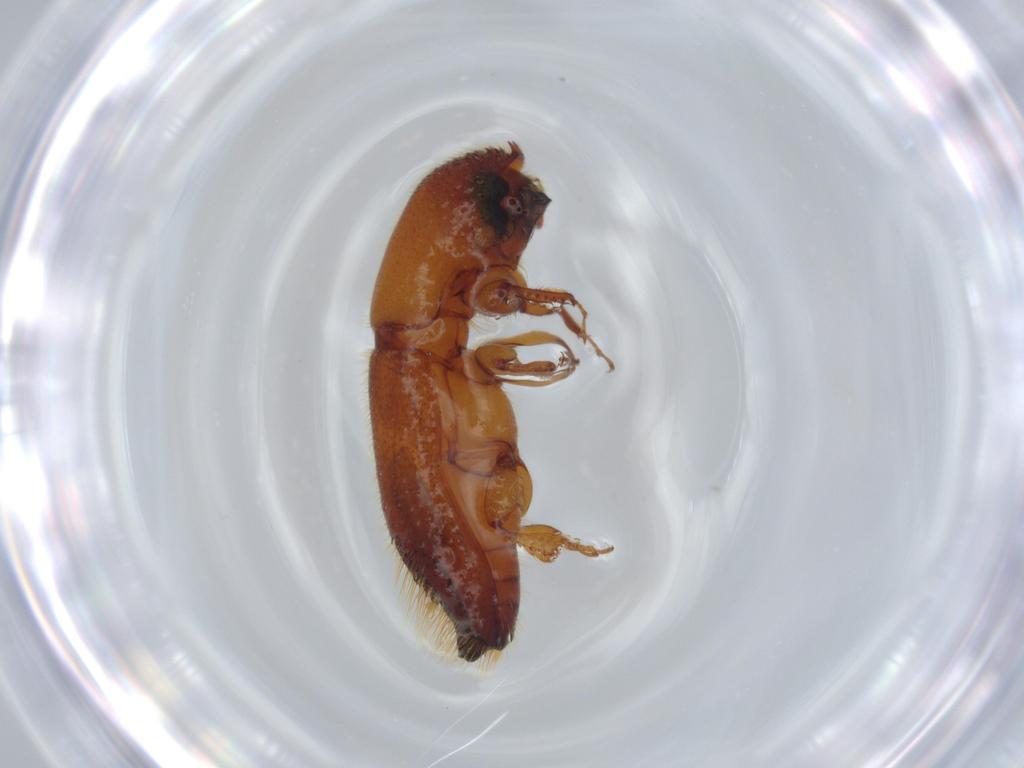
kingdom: Animalia
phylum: Arthropoda
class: Insecta
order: Coleoptera
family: Curculionidae
